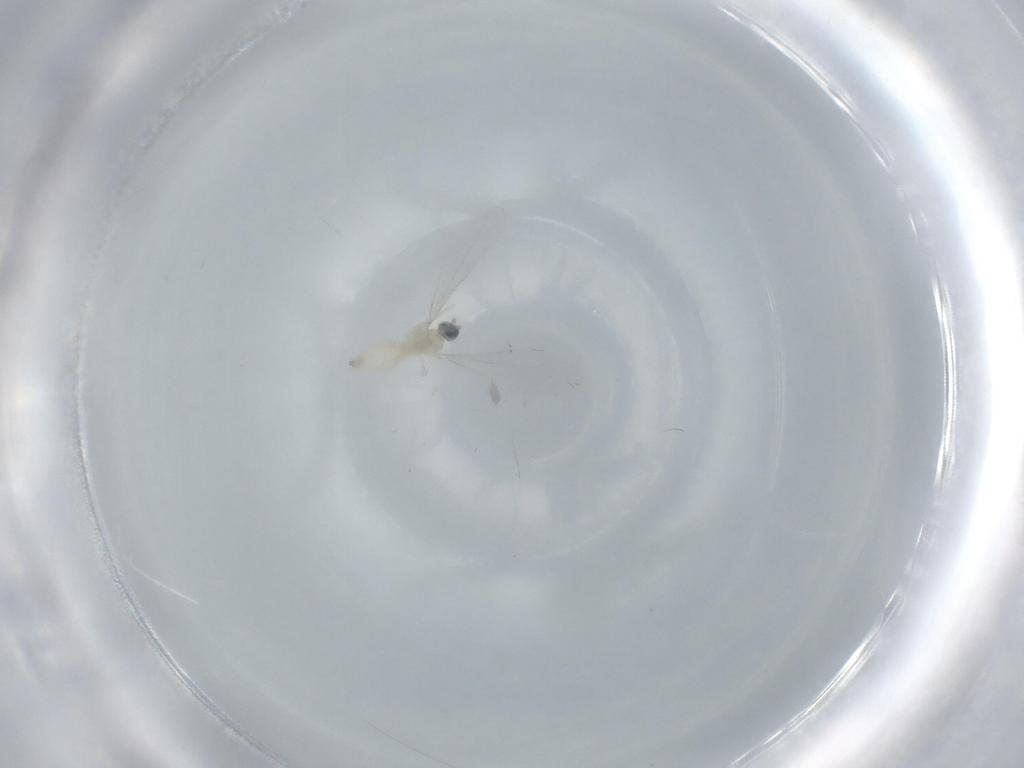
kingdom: Animalia
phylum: Arthropoda
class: Insecta
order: Diptera
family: Cecidomyiidae
